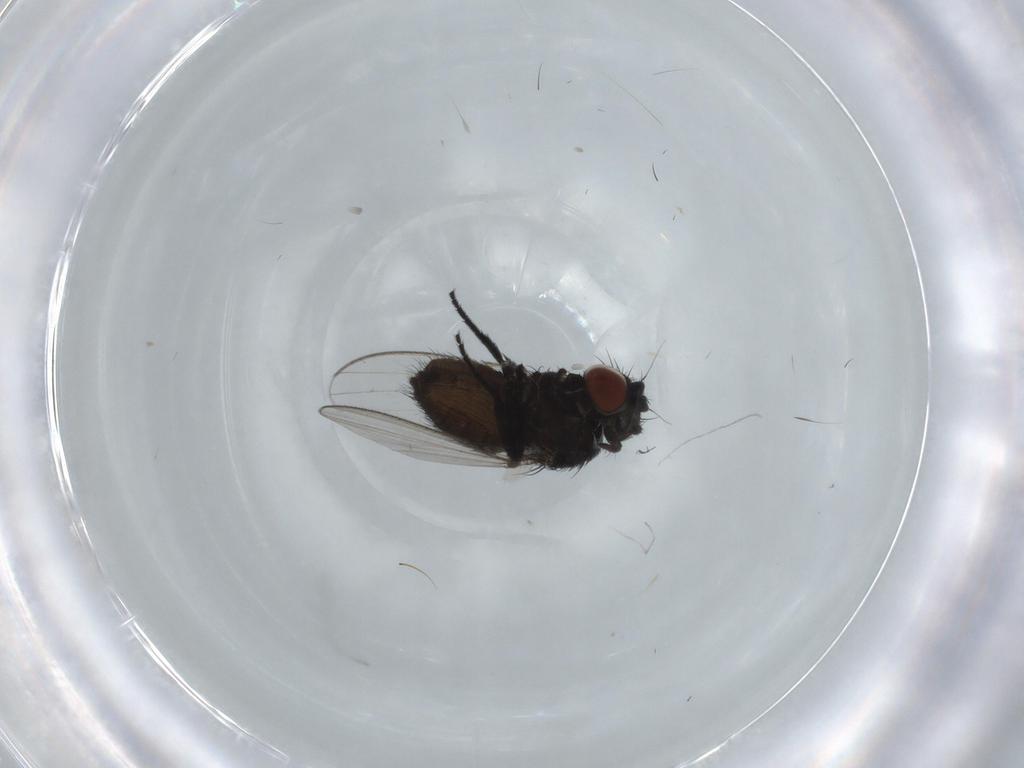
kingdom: Animalia
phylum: Arthropoda
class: Insecta
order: Diptera
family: Milichiidae
